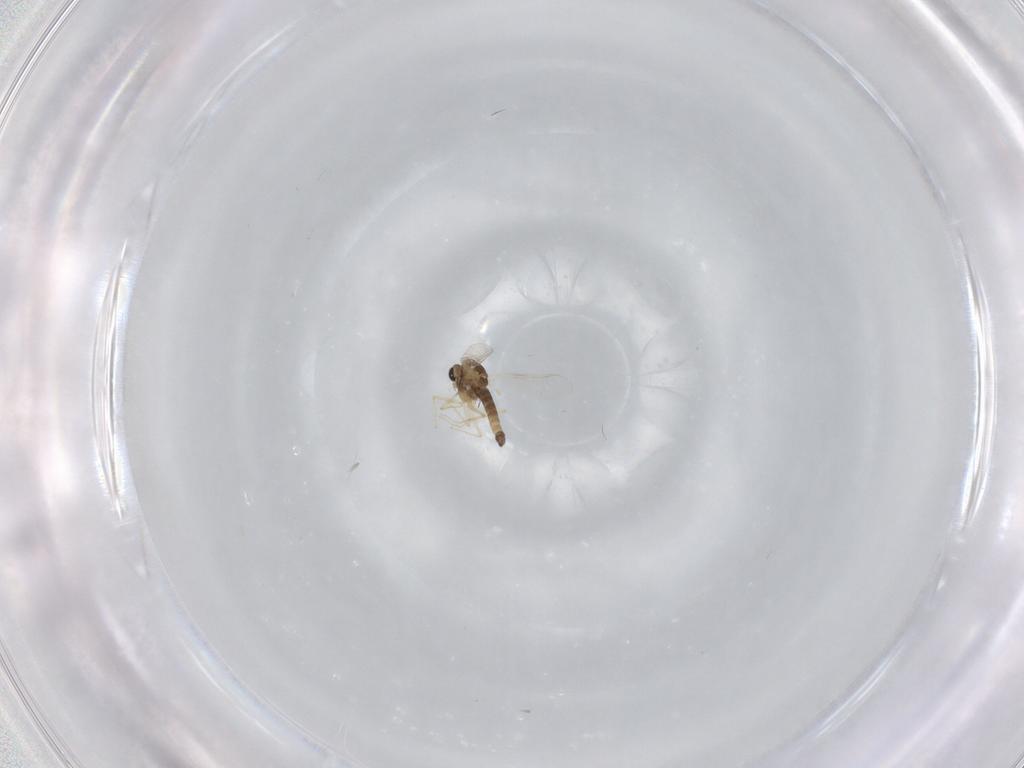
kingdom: Animalia
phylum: Arthropoda
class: Insecta
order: Diptera
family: Chironomidae
